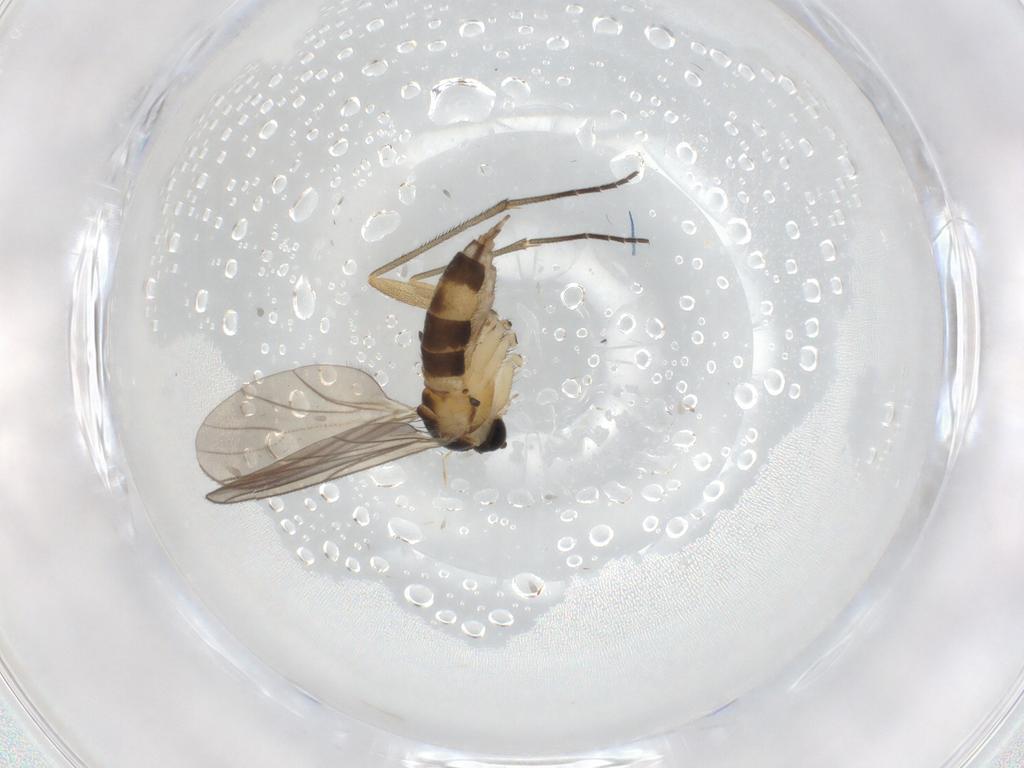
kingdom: Animalia
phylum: Arthropoda
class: Insecta
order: Diptera
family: Sciaridae
